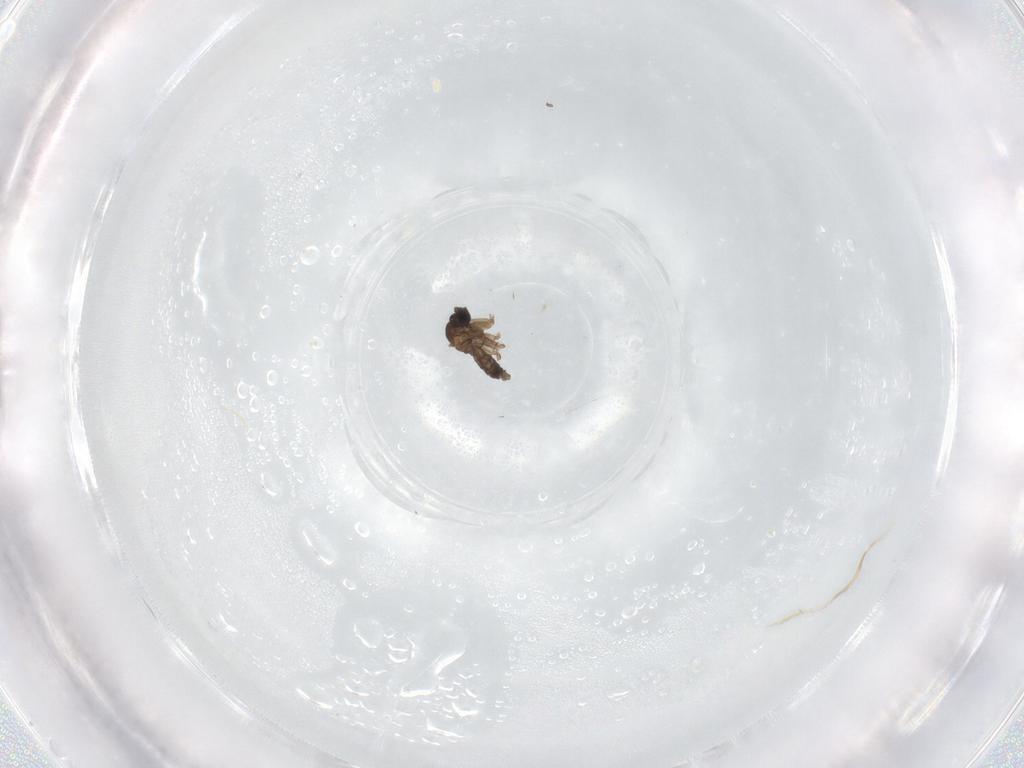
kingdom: Animalia
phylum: Arthropoda
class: Insecta
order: Diptera
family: Sciaridae
